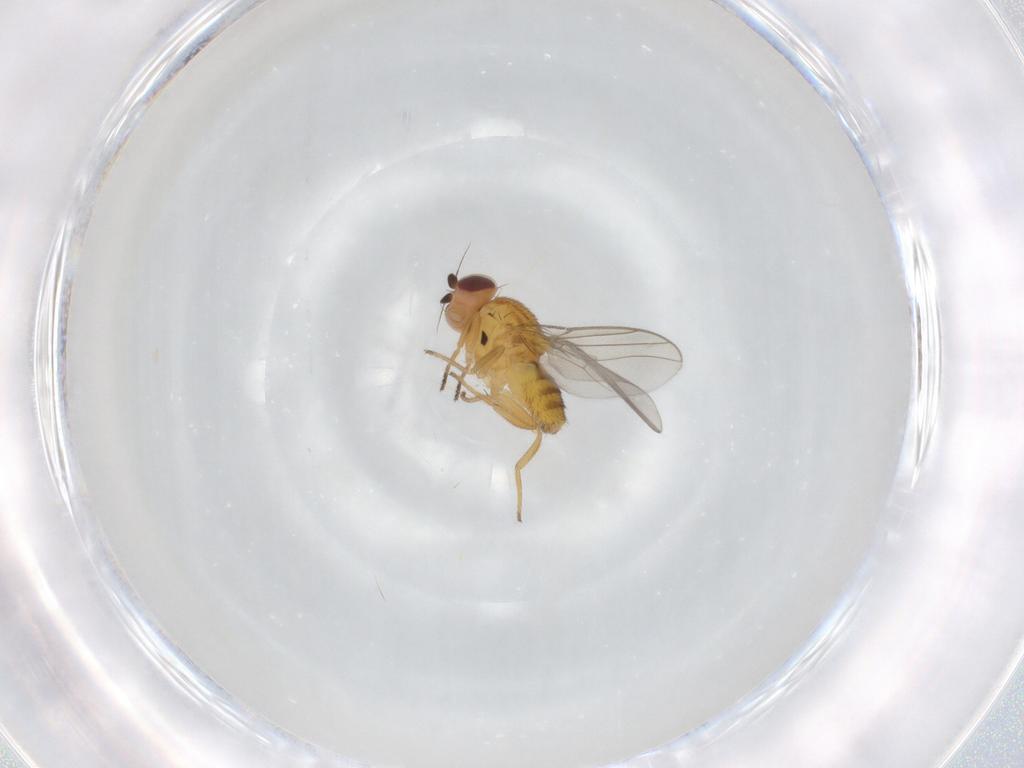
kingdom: Animalia
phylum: Arthropoda
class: Insecta
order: Diptera
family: Chloropidae
